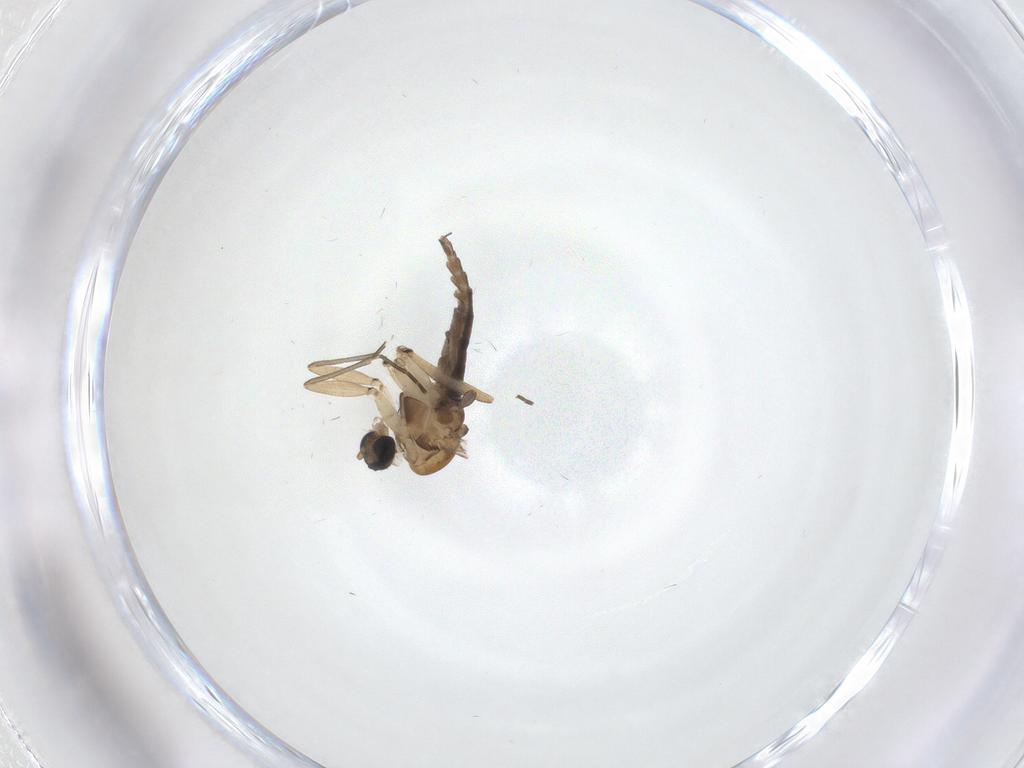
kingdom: Animalia
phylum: Arthropoda
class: Insecta
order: Diptera
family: Sciaridae
